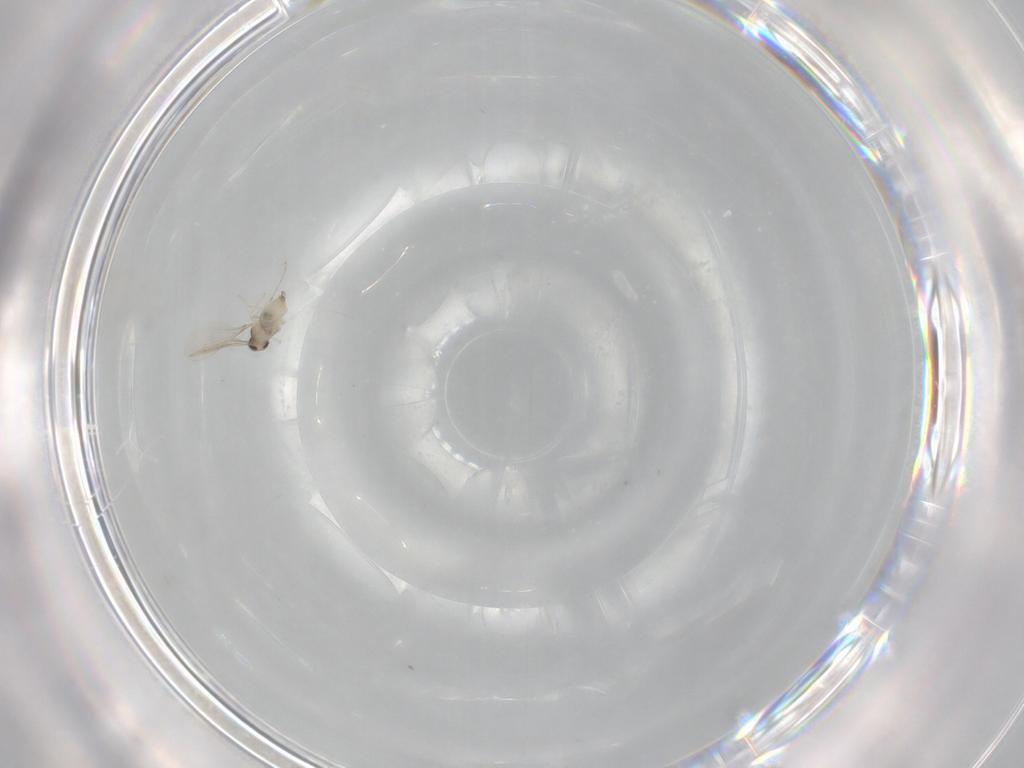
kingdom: Animalia
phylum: Arthropoda
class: Insecta
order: Diptera
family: Cecidomyiidae
